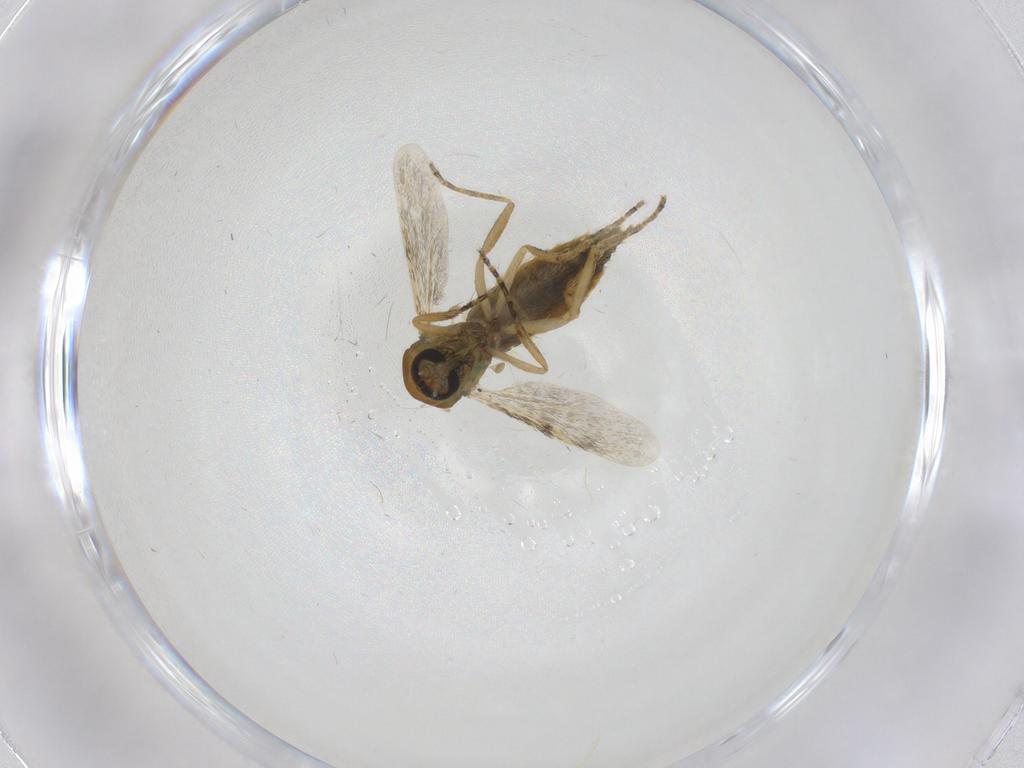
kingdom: Animalia
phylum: Arthropoda
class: Insecta
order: Diptera
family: Ceratopogonidae
